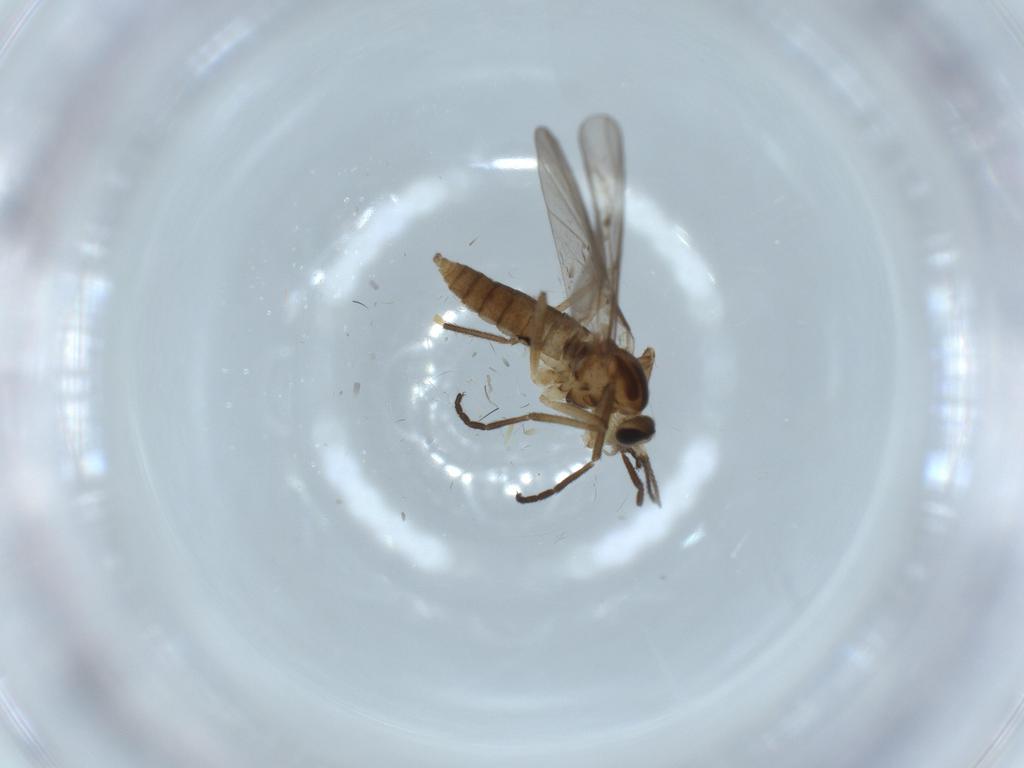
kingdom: Animalia
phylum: Arthropoda
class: Insecta
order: Diptera
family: Cecidomyiidae
